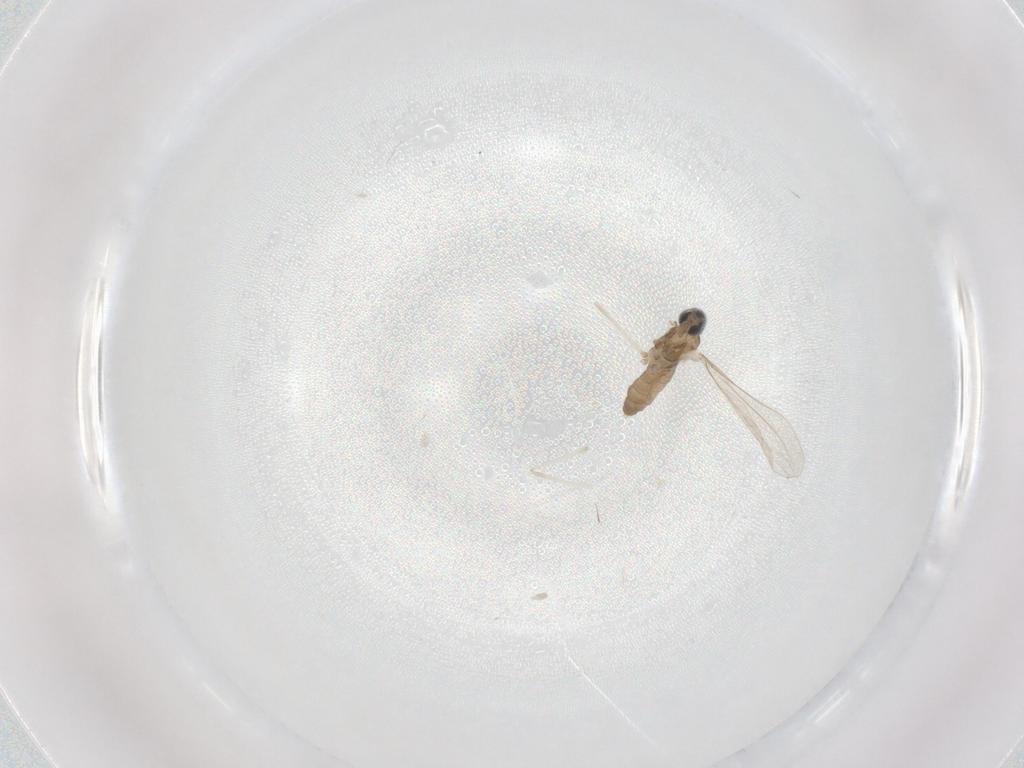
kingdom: Animalia
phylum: Arthropoda
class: Insecta
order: Diptera
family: Cecidomyiidae
